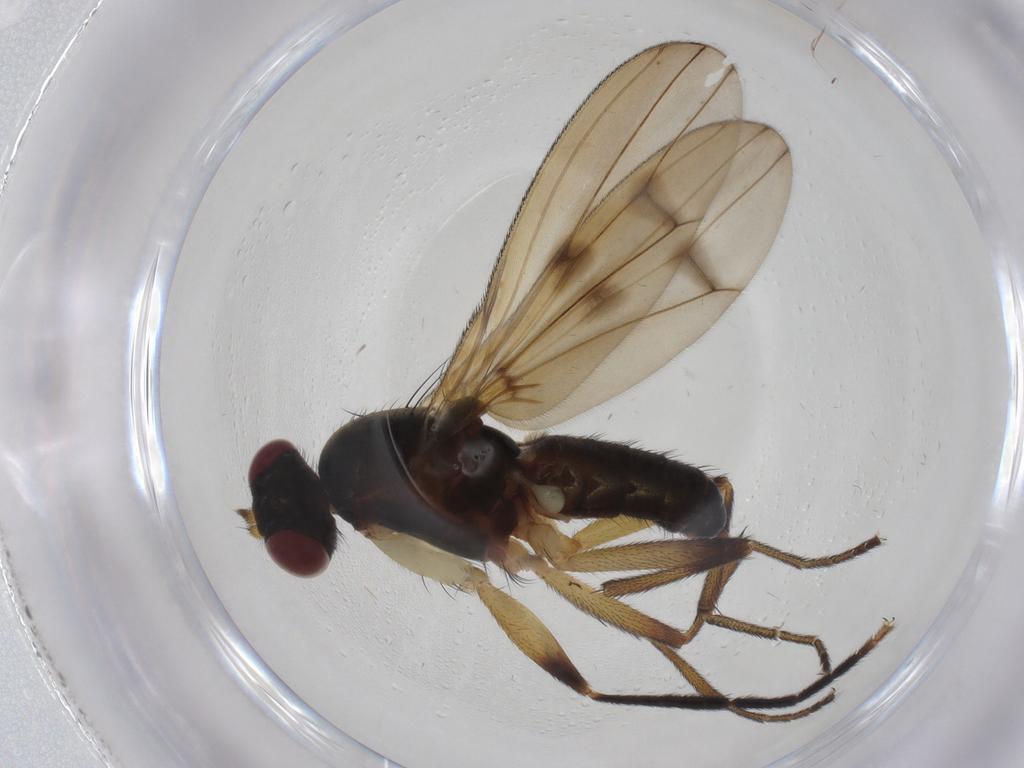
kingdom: Animalia
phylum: Arthropoda
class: Insecta
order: Diptera
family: Sciomyzidae
